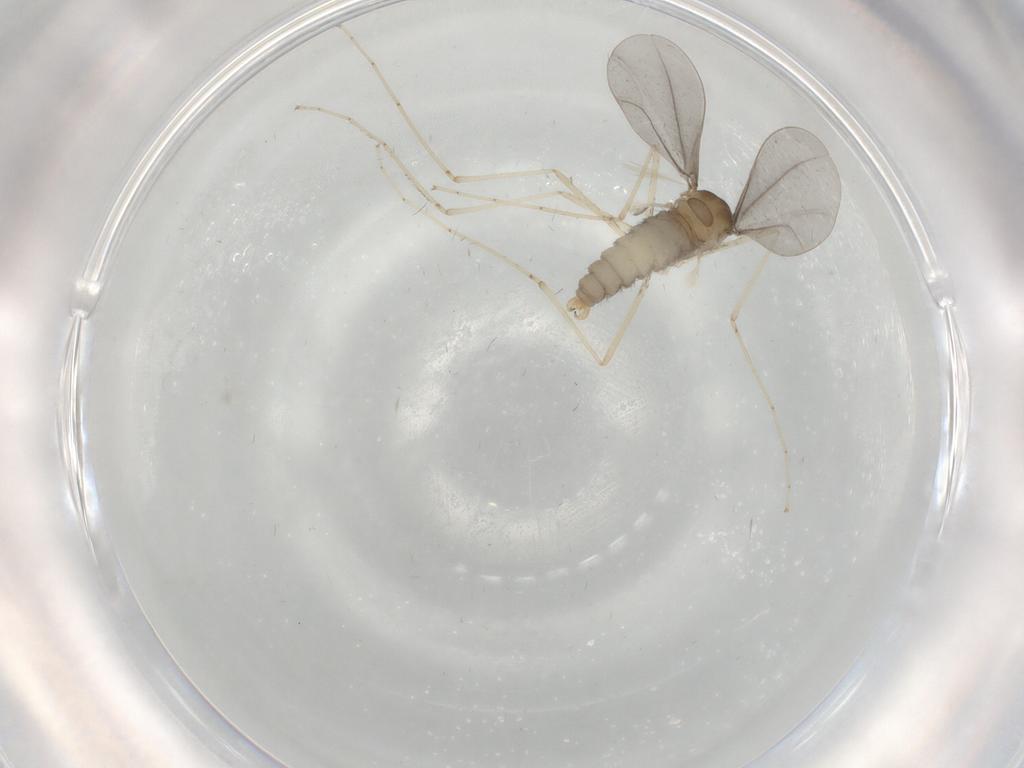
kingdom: Animalia
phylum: Arthropoda
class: Insecta
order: Diptera
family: Cecidomyiidae
